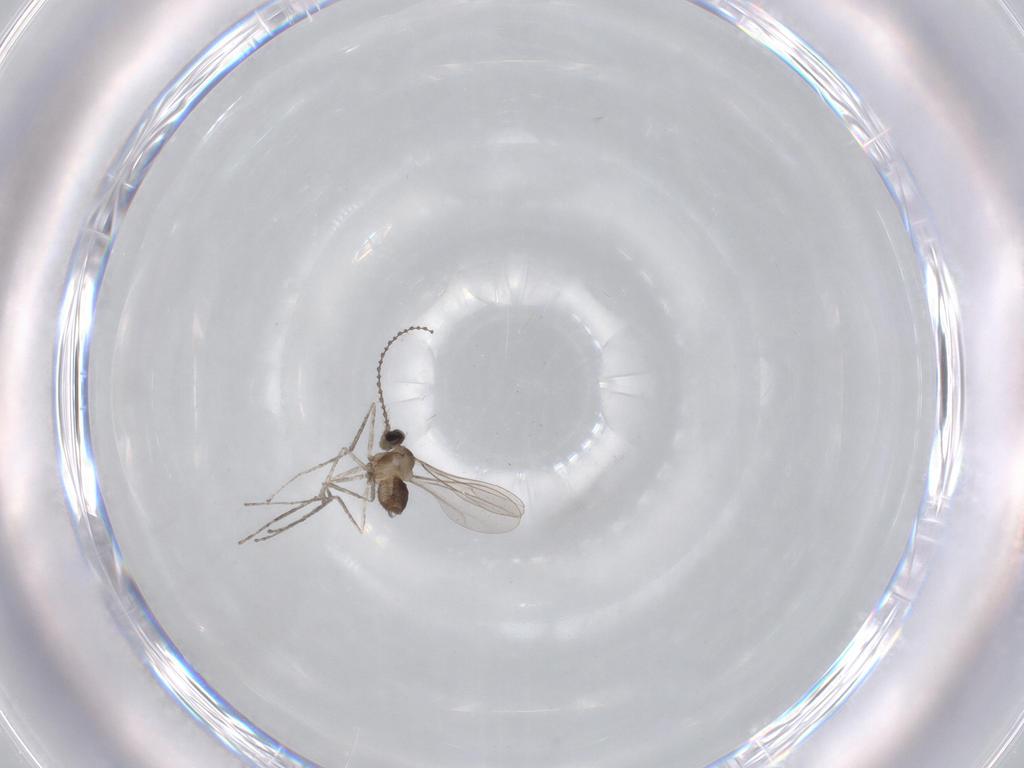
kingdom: Animalia
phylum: Arthropoda
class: Insecta
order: Diptera
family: Cecidomyiidae
